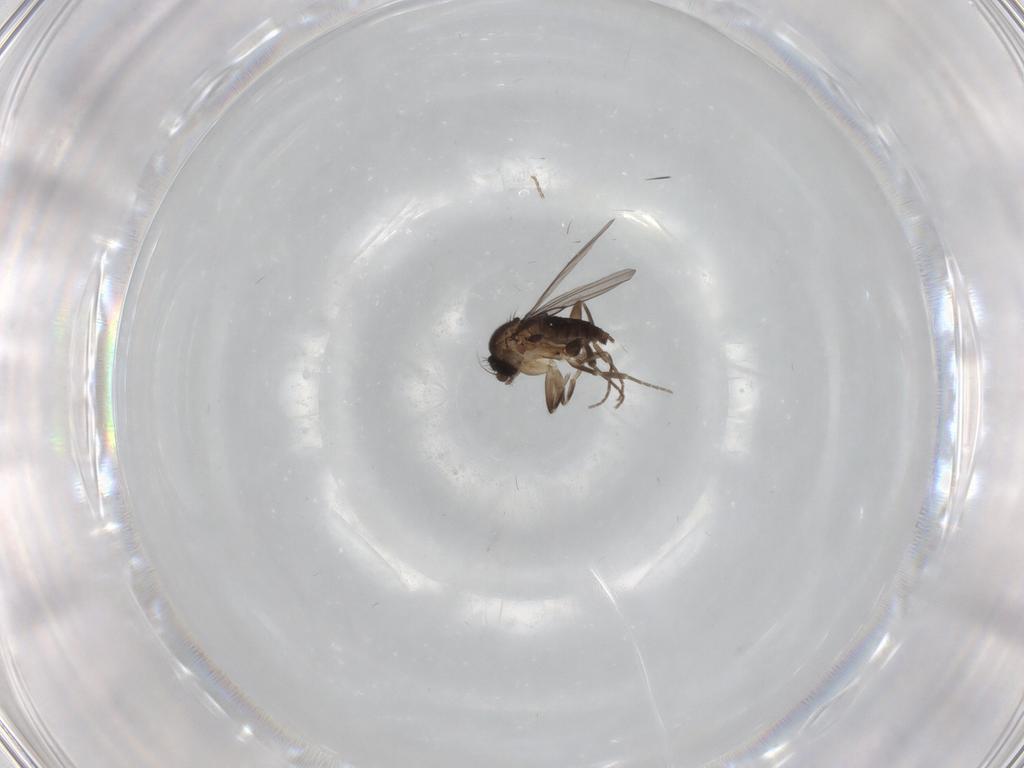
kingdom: Animalia
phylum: Arthropoda
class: Insecta
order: Diptera
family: Cecidomyiidae
